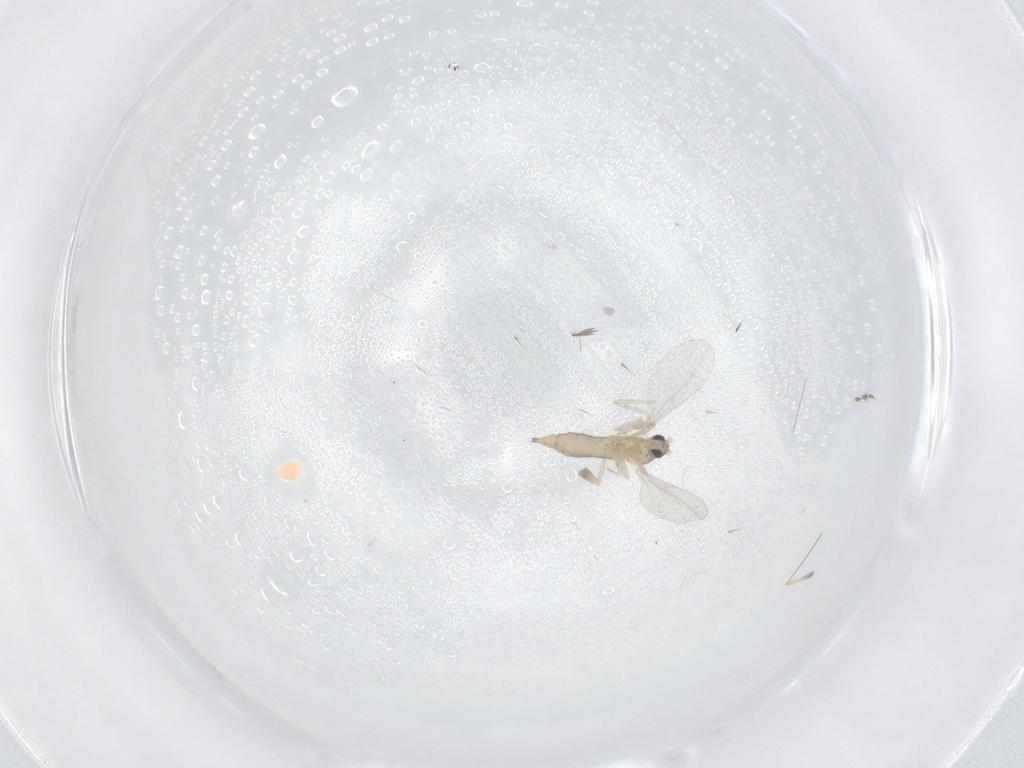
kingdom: Animalia
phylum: Arthropoda
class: Insecta
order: Diptera
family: Cecidomyiidae
